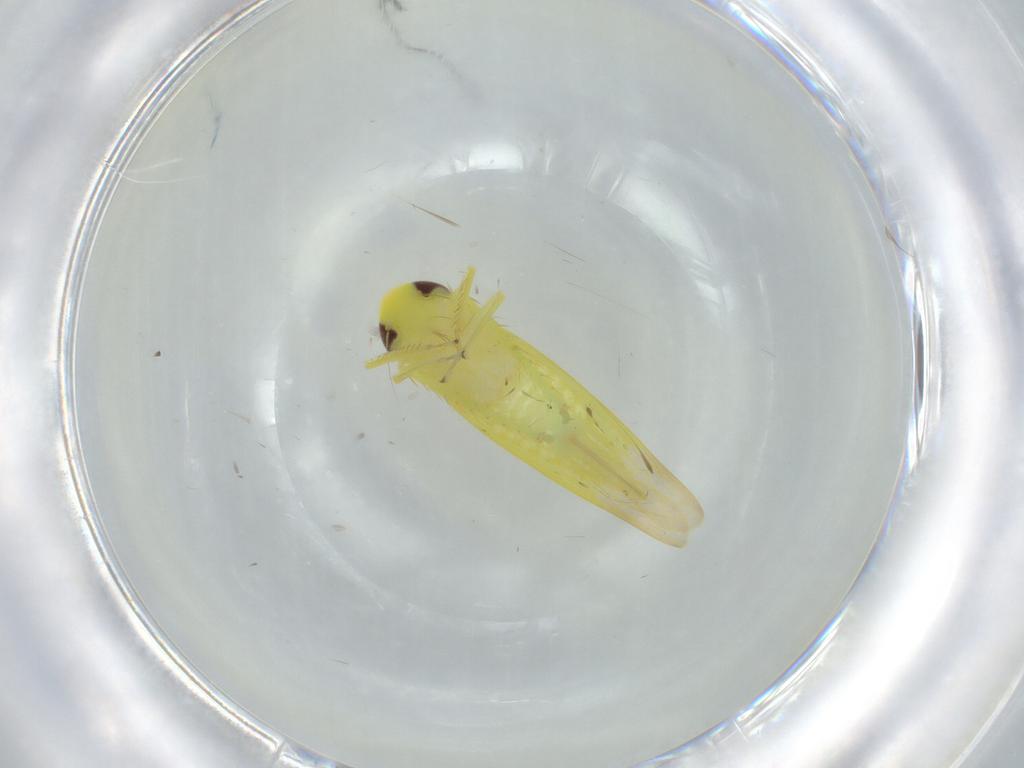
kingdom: Animalia
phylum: Arthropoda
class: Insecta
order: Hemiptera
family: Cicadellidae
